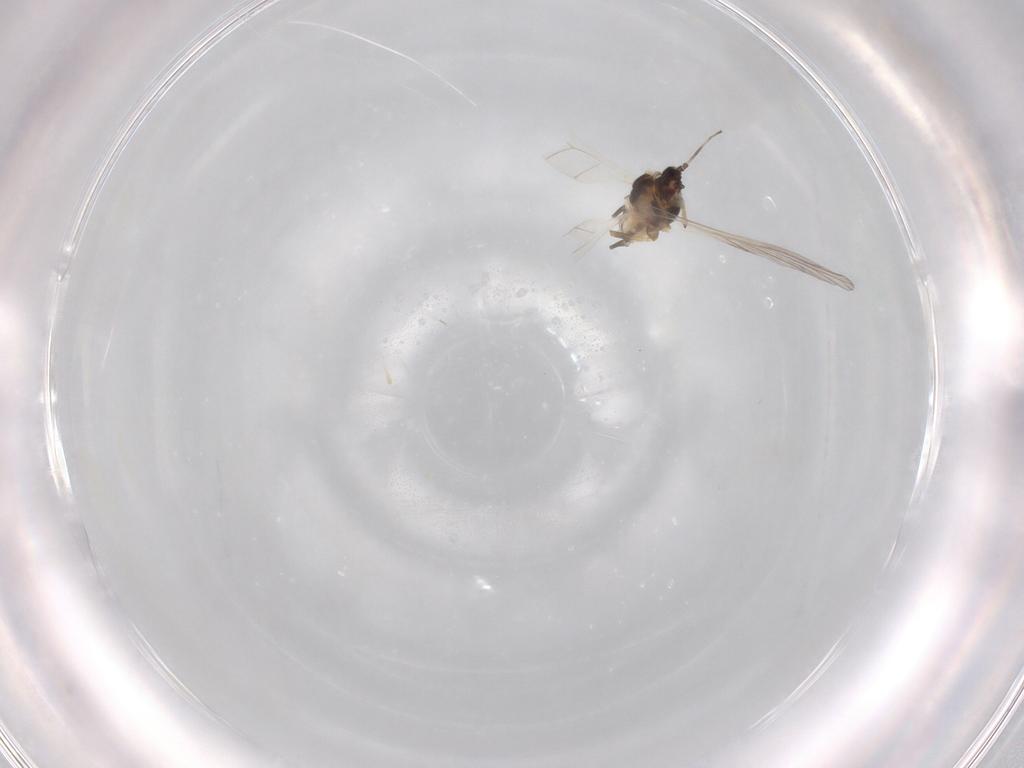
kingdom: Animalia
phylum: Arthropoda
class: Insecta
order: Hemiptera
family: Aphididae
